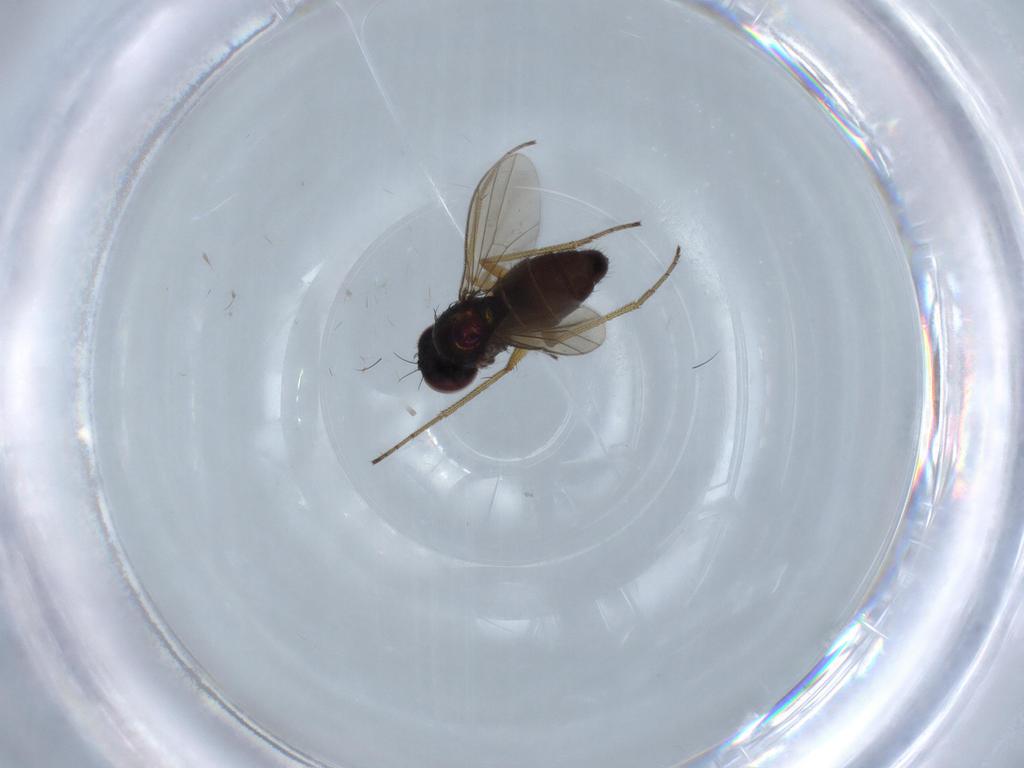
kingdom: Animalia
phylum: Arthropoda
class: Insecta
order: Diptera
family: Dolichopodidae
